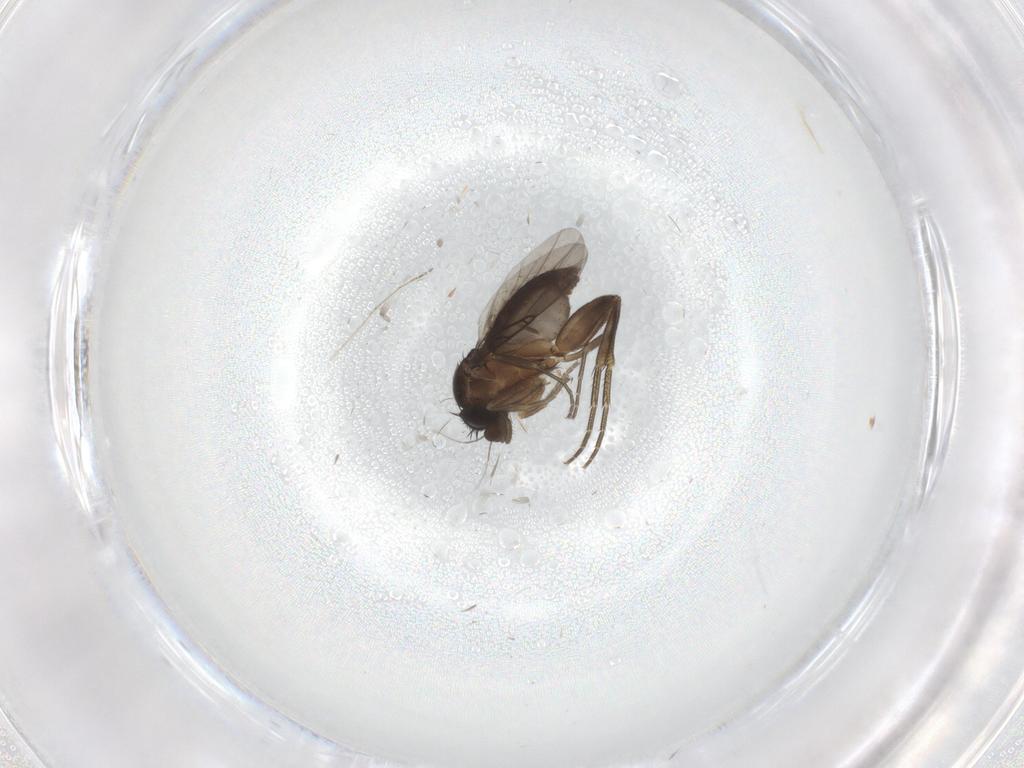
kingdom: Animalia
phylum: Arthropoda
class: Insecta
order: Diptera
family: Phoridae
